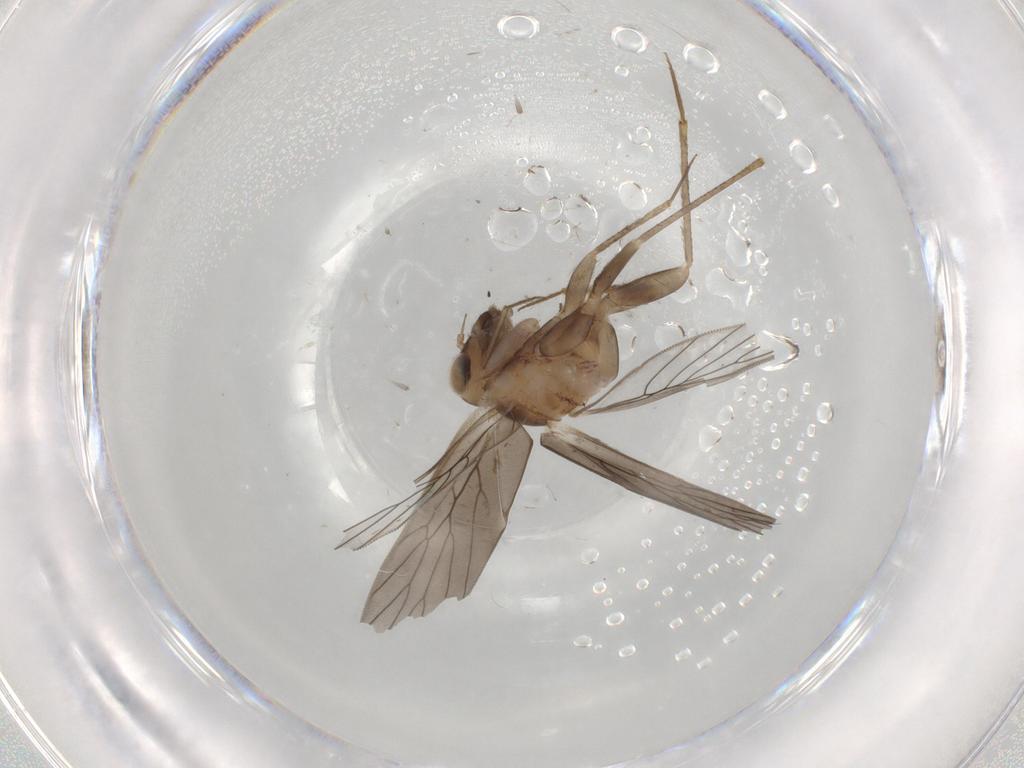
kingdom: Animalia
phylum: Arthropoda
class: Insecta
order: Psocodea
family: Lepidopsocidae
